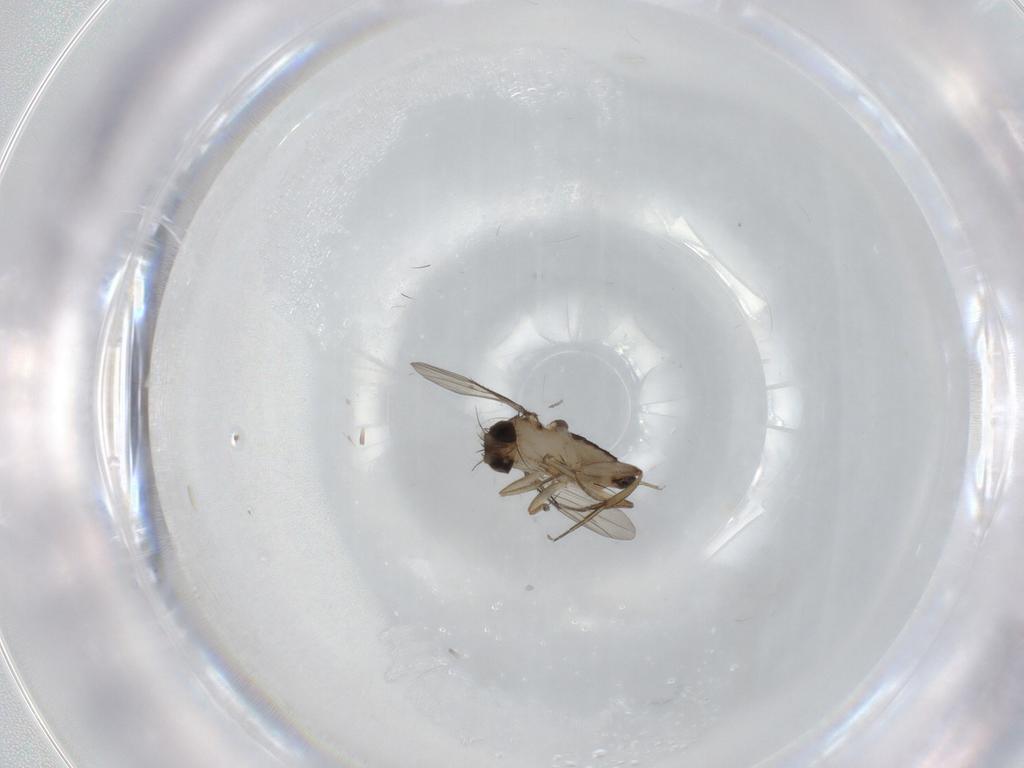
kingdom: Animalia
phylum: Arthropoda
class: Insecta
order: Diptera
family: Phoridae
